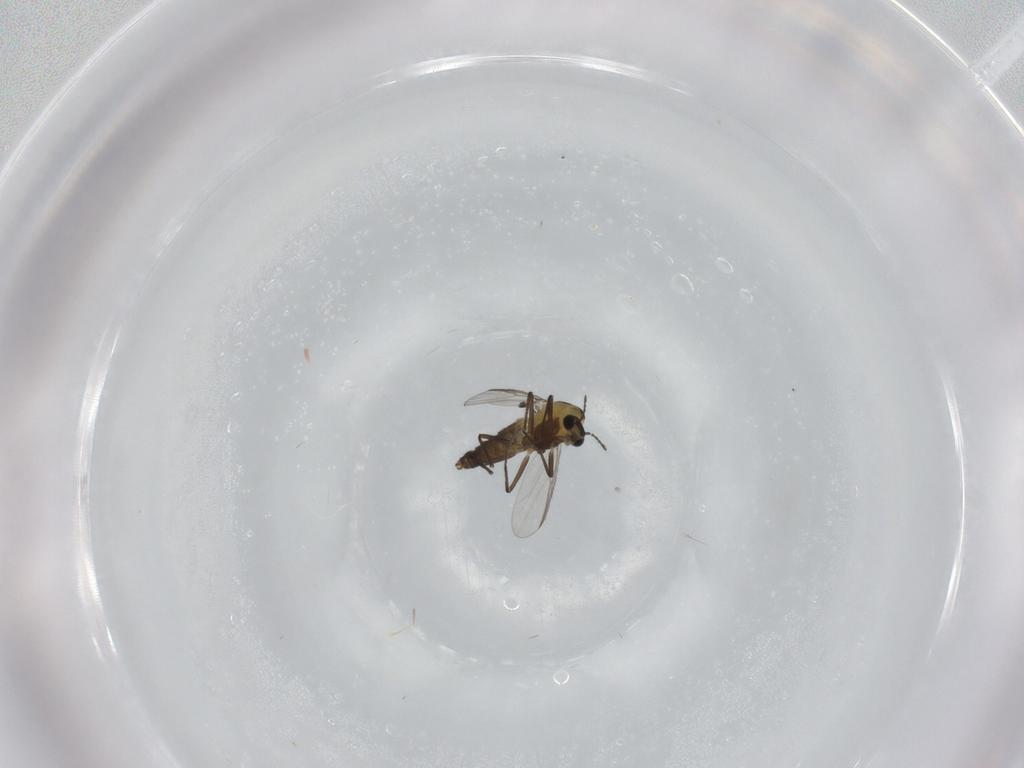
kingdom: Animalia
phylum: Arthropoda
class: Insecta
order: Diptera
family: Chironomidae
